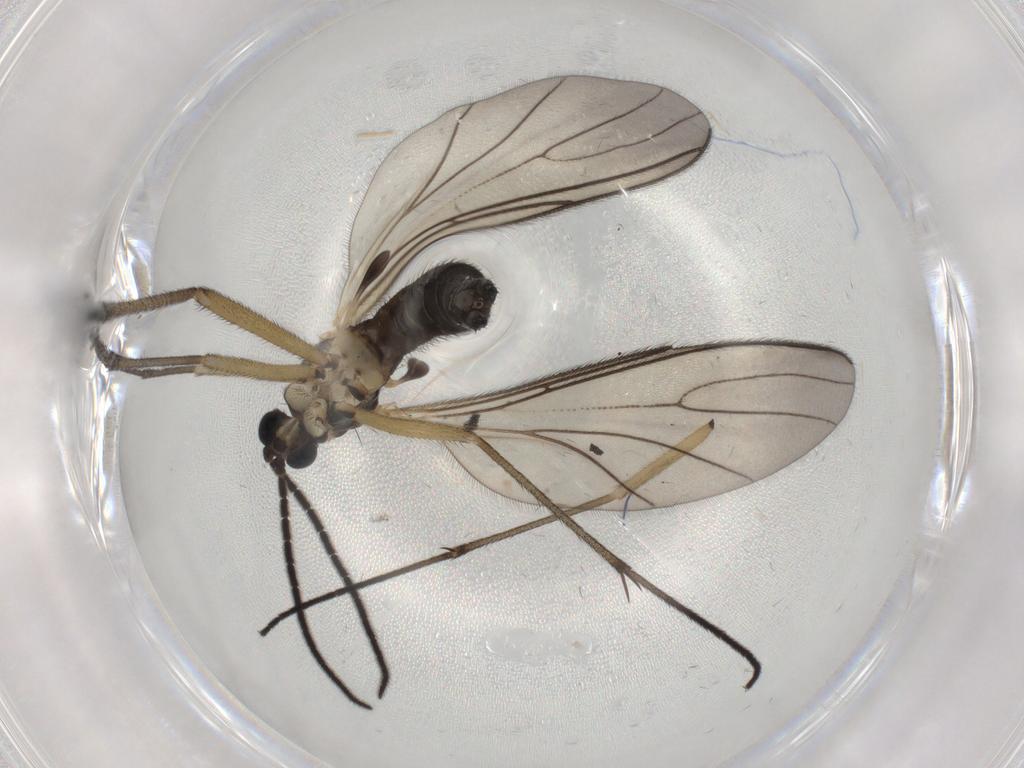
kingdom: Animalia
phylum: Arthropoda
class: Insecta
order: Diptera
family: Sciaridae
